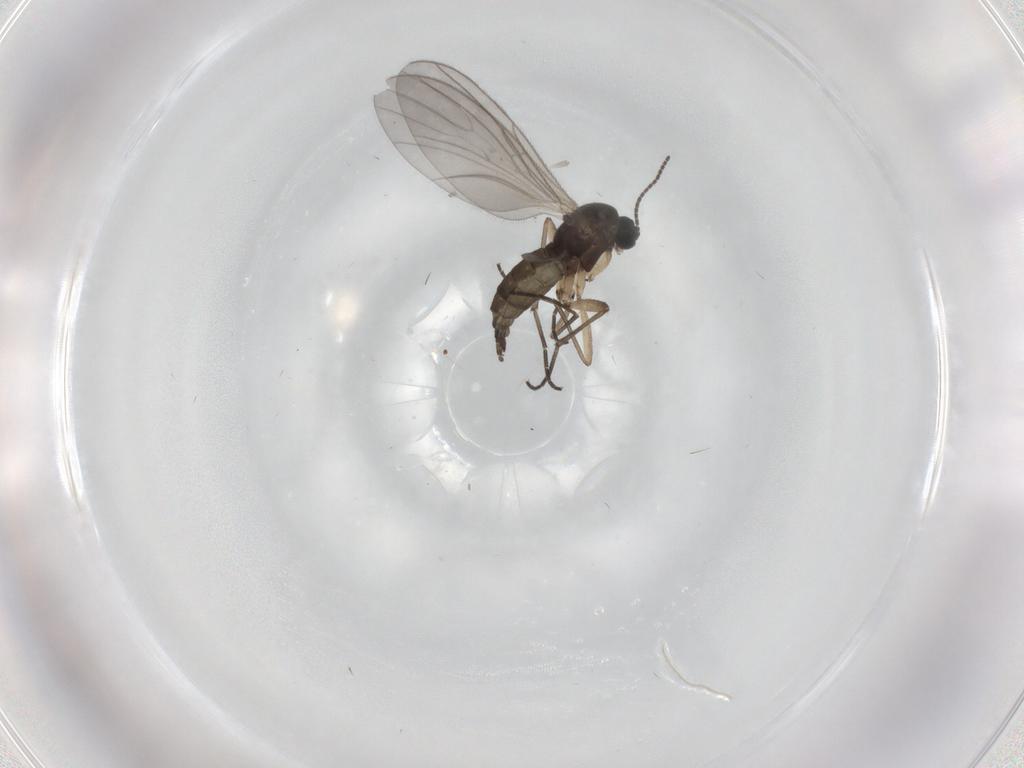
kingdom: Animalia
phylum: Arthropoda
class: Insecta
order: Diptera
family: Sciaridae
